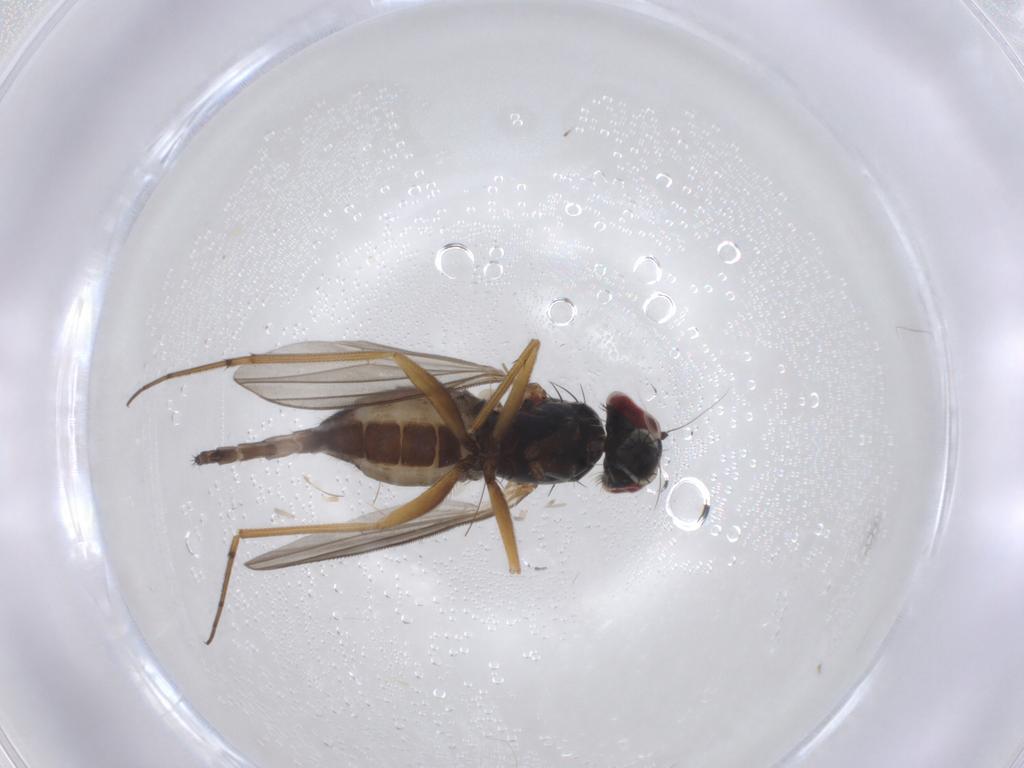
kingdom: Animalia
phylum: Arthropoda
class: Insecta
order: Diptera
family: Dolichopodidae
